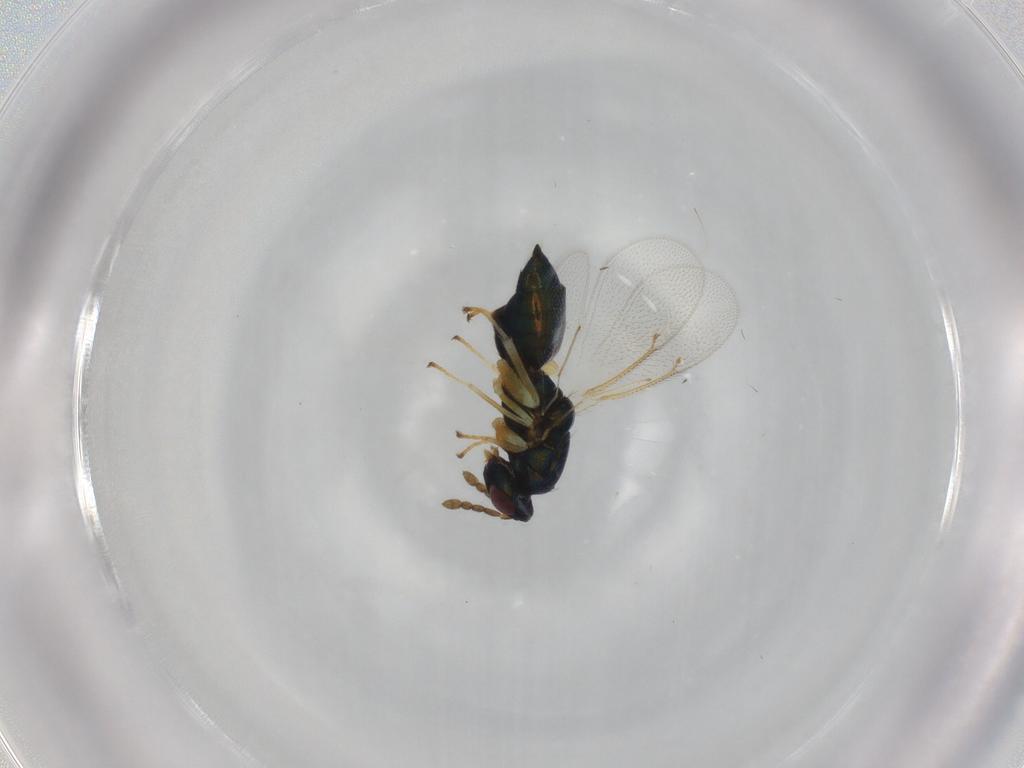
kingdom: Animalia
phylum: Arthropoda
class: Insecta
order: Hymenoptera
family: Eulophidae
